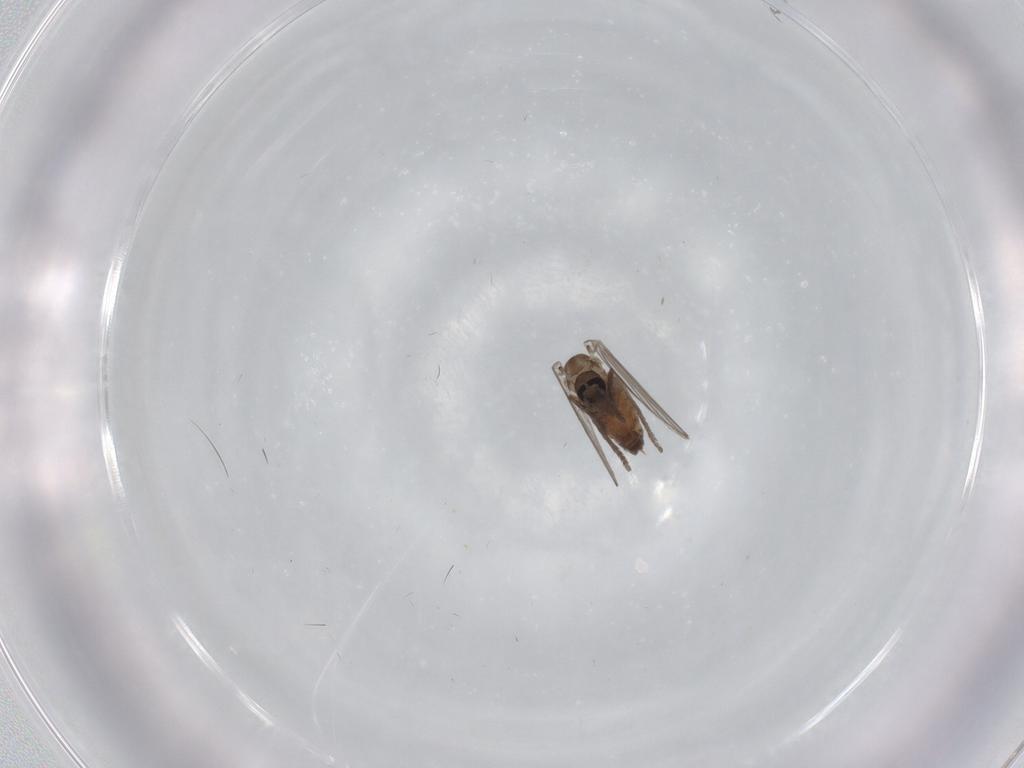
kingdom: Animalia
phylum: Arthropoda
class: Insecta
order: Diptera
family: Psychodidae
